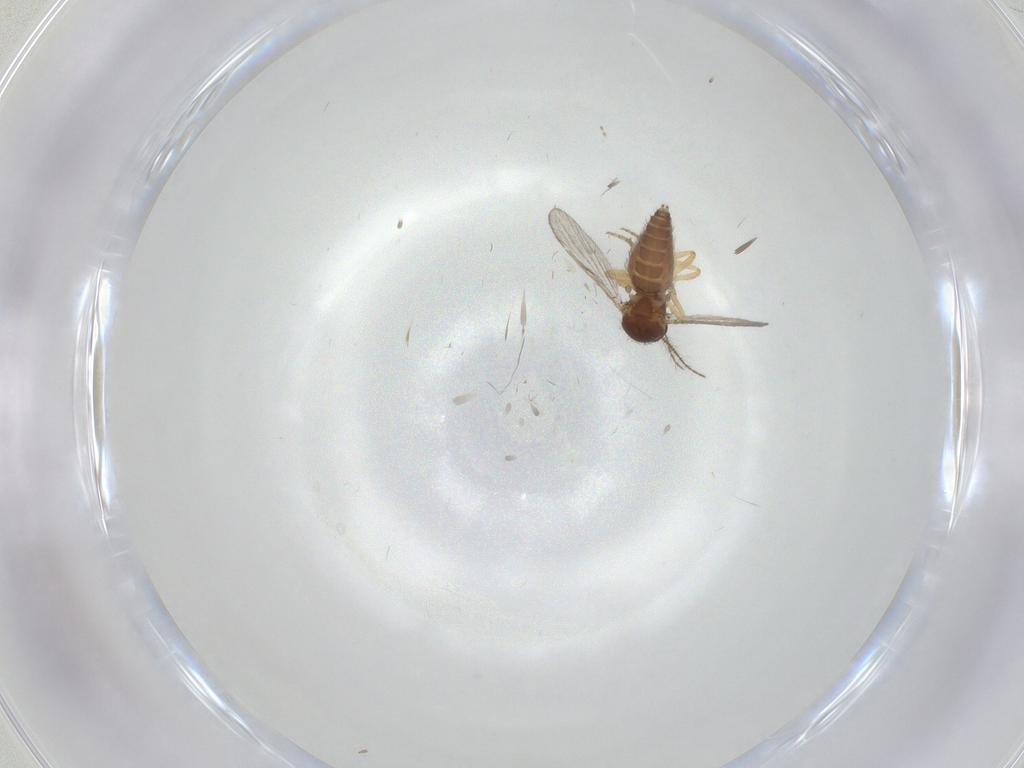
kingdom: Animalia
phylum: Arthropoda
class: Insecta
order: Diptera
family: Ceratopogonidae
